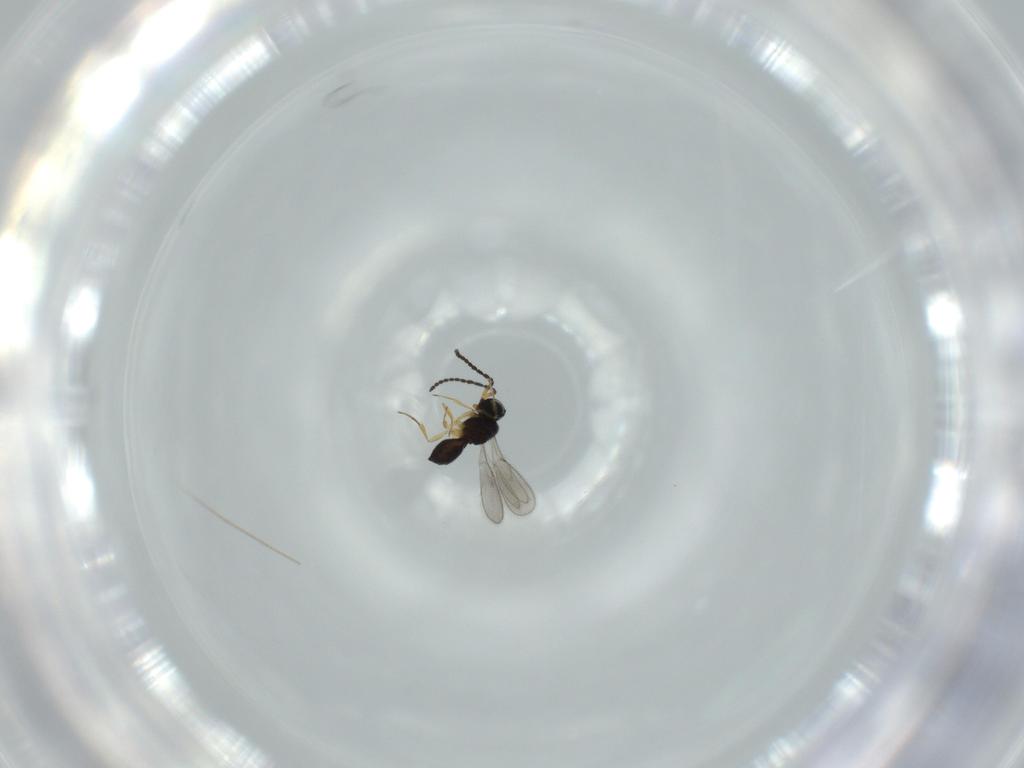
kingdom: Animalia
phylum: Arthropoda
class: Insecta
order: Hymenoptera
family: Scelionidae
